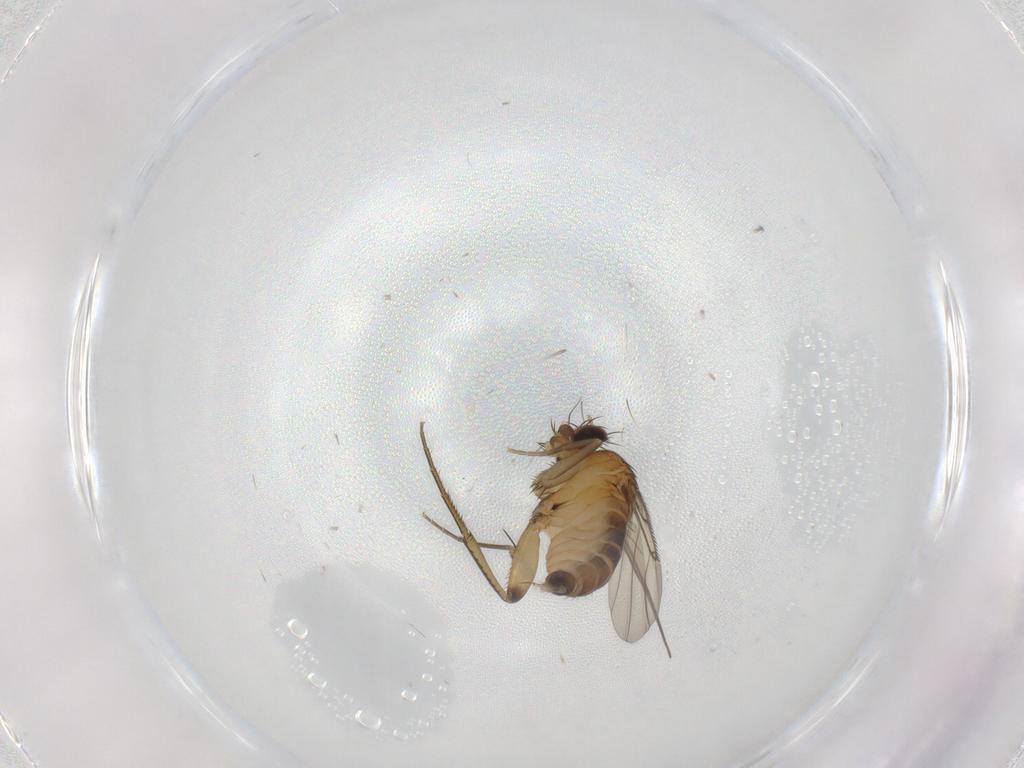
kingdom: Animalia
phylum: Arthropoda
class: Insecta
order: Diptera
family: Phoridae
